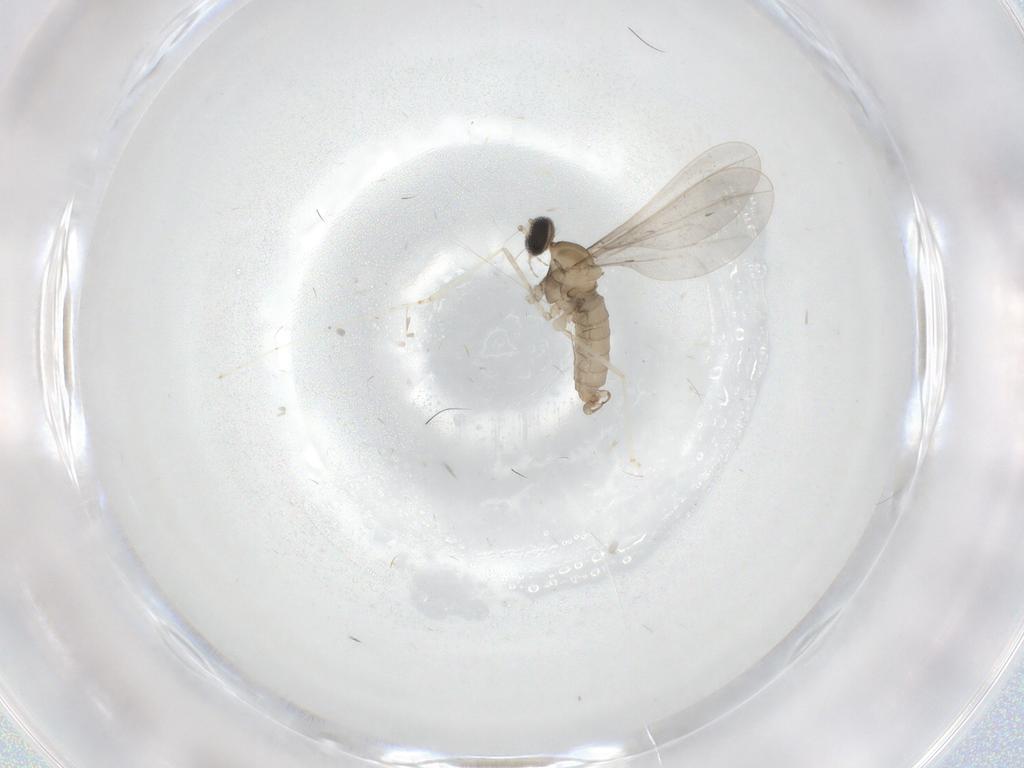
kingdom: Animalia
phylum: Arthropoda
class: Insecta
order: Diptera
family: Cecidomyiidae
